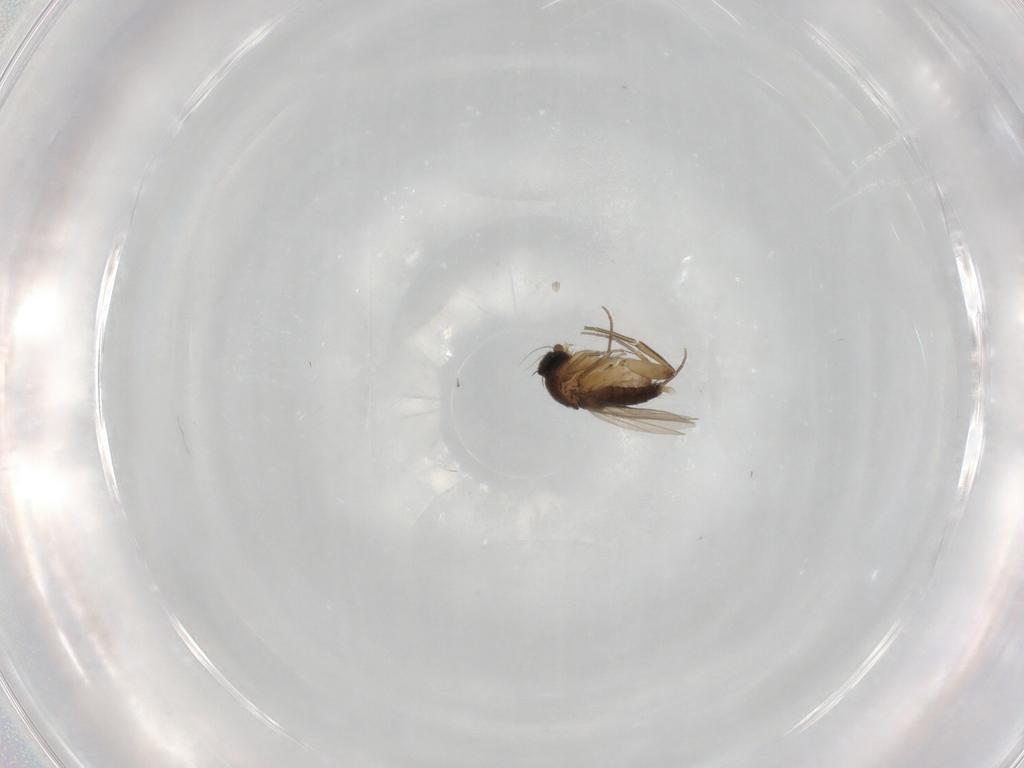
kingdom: Animalia
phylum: Arthropoda
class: Insecta
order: Diptera
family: Phoridae
